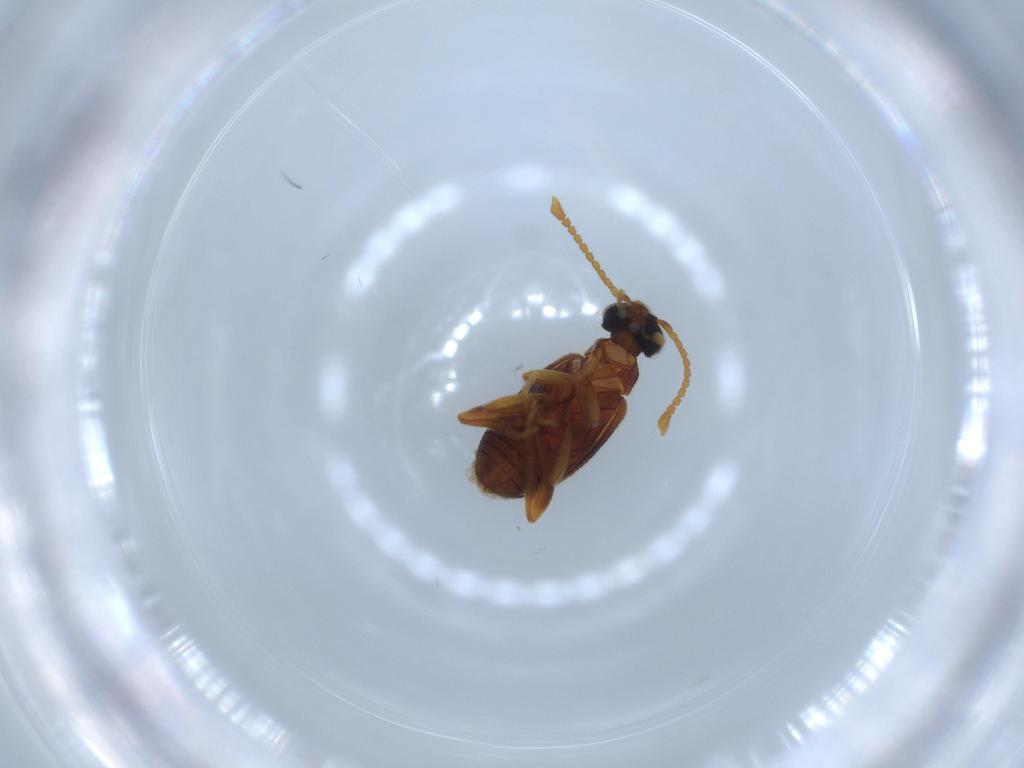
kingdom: Animalia
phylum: Arthropoda
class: Insecta
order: Coleoptera
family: Aderidae
